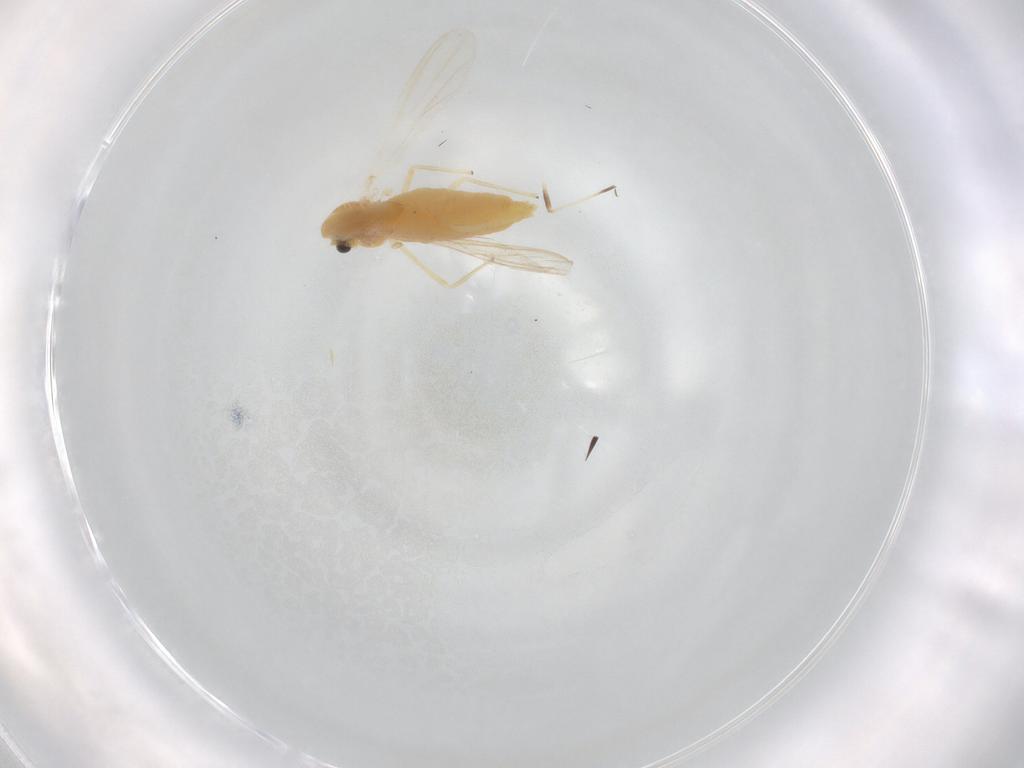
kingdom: Animalia
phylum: Arthropoda
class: Insecta
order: Diptera
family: Chironomidae
